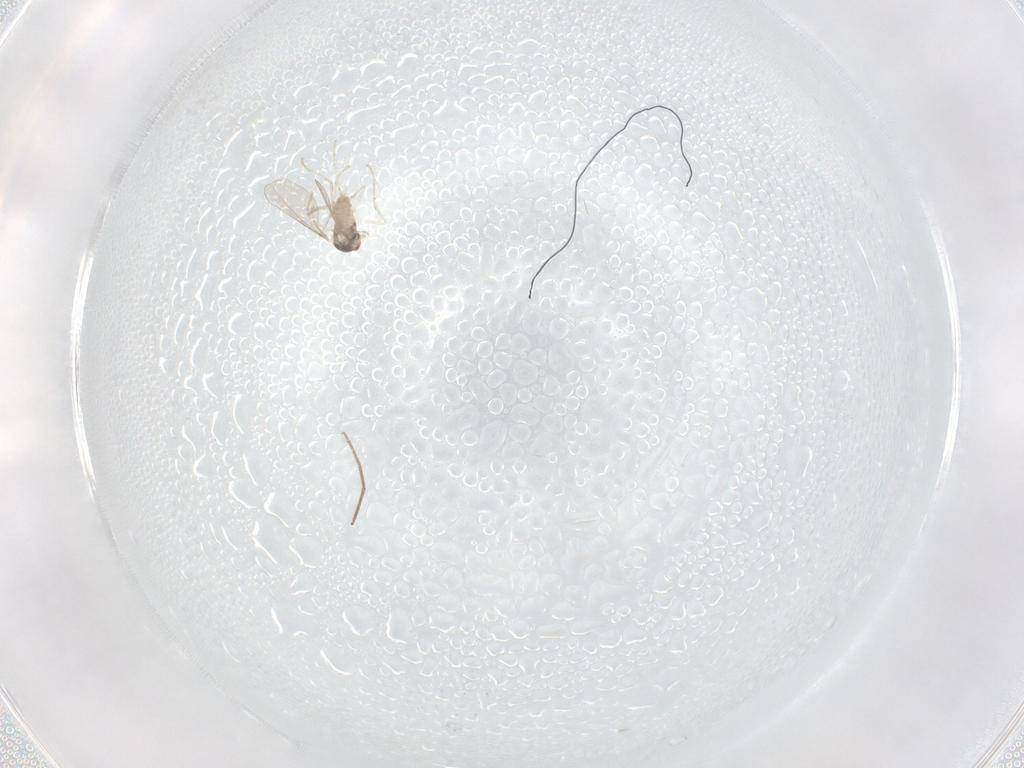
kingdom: Animalia
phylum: Arthropoda
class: Insecta
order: Diptera
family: Chironomidae
